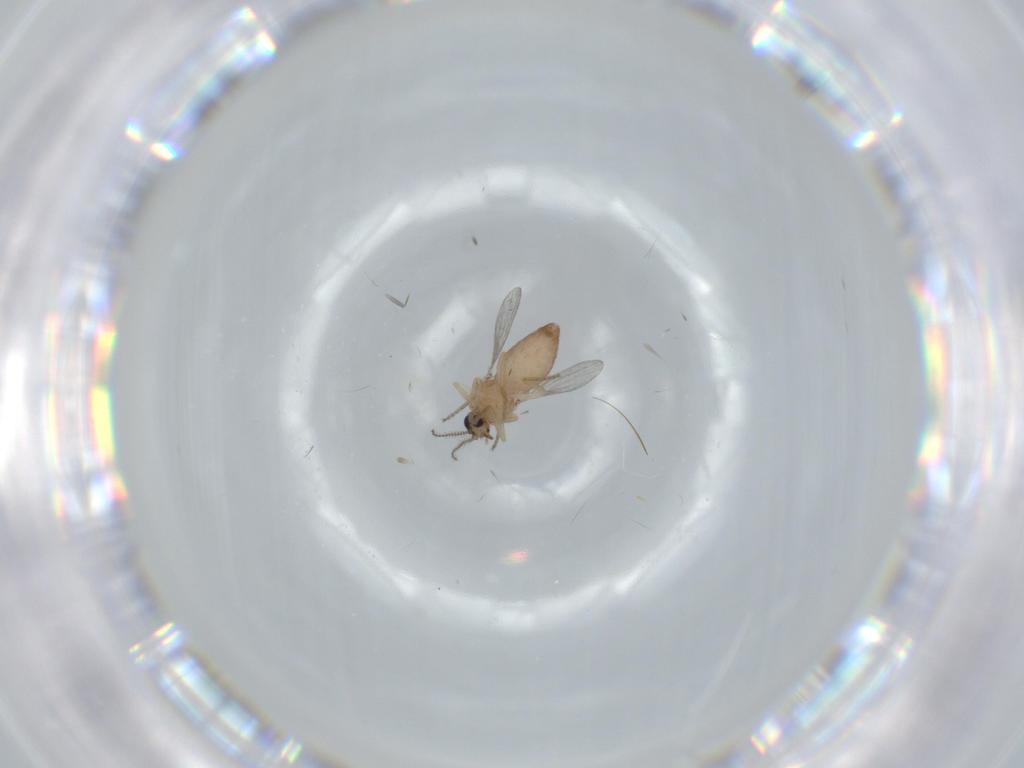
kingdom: Animalia
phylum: Arthropoda
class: Insecta
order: Diptera
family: Ceratopogonidae
